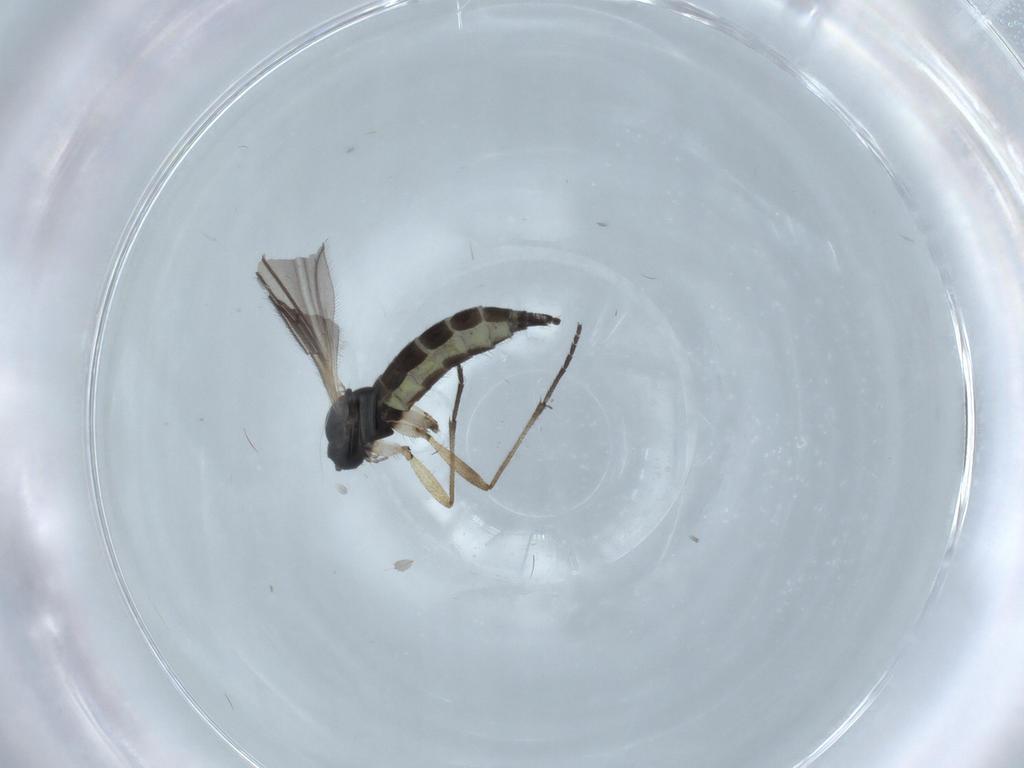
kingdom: Animalia
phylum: Arthropoda
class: Insecta
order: Diptera
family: Sciaridae
